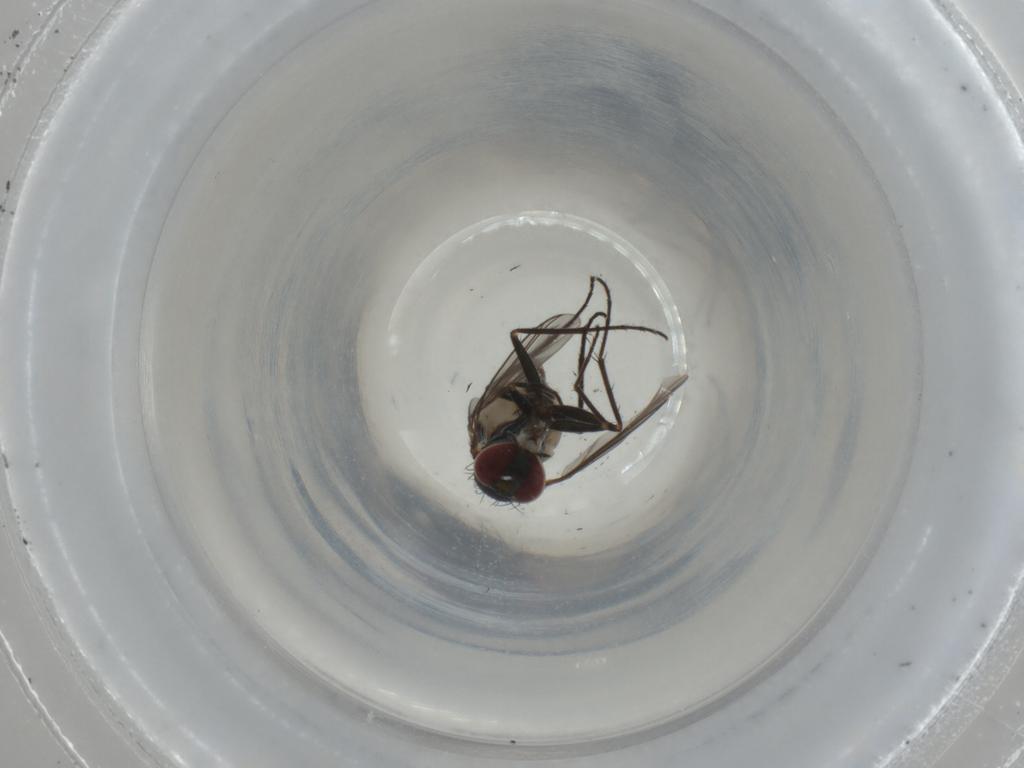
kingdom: Animalia
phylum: Arthropoda
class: Insecta
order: Diptera
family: Dolichopodidae
